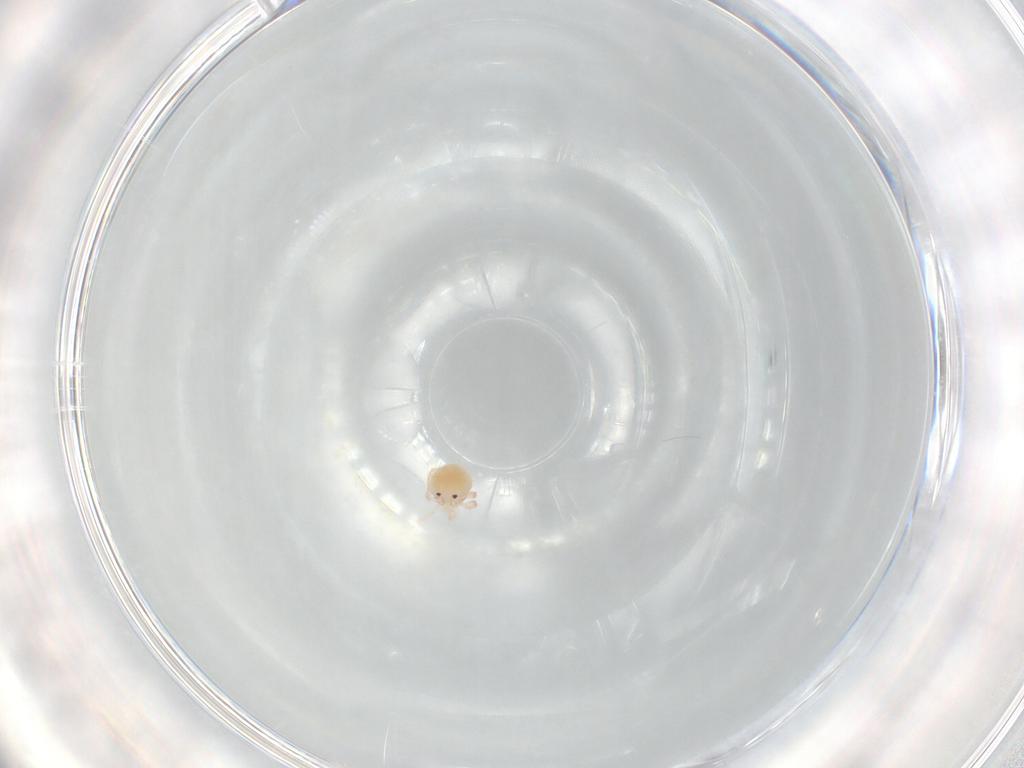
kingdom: Animalia
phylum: Arthropoda
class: Arachnida
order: Trombidiformes
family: Lebertiidae
